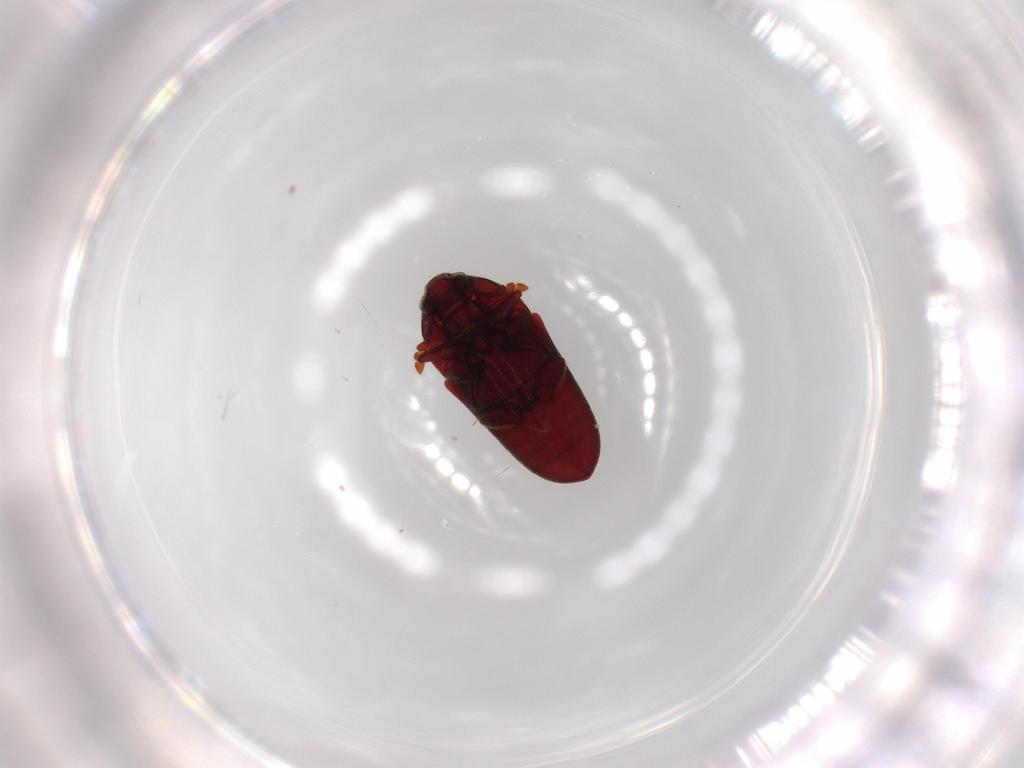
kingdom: Animalia
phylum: Arthropoda
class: Insecta
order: Coleoptera
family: Throscidae
